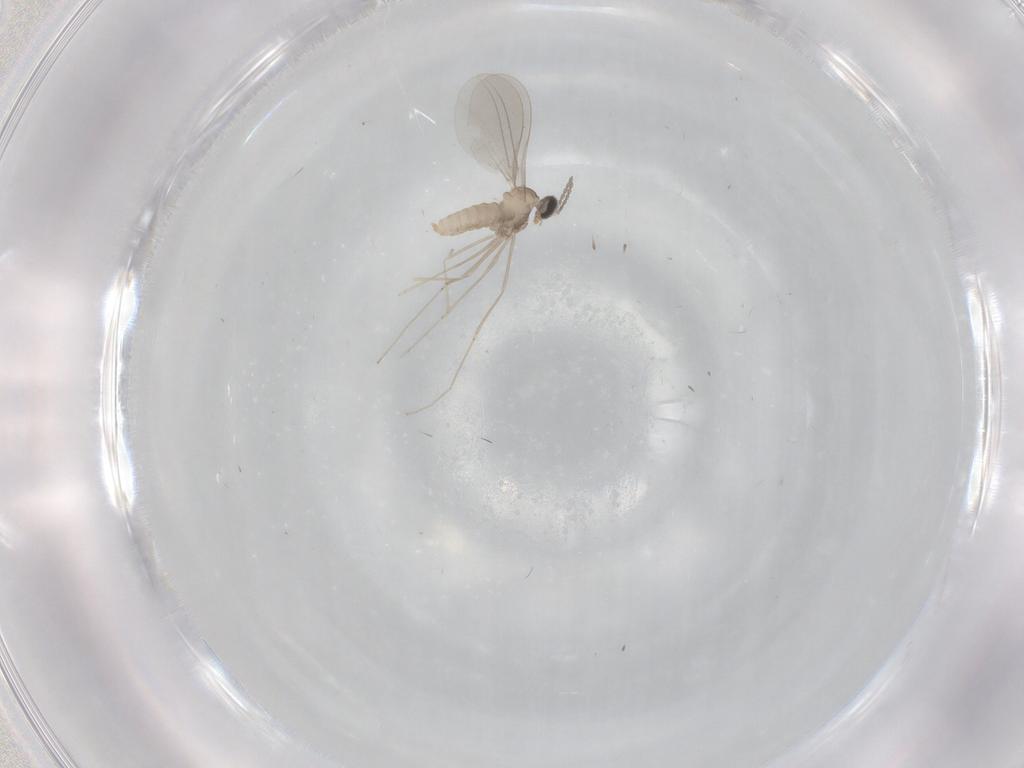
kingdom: Animalia
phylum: Arthropoda
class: Insecta
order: Diptera
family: Cecidomyiidae
